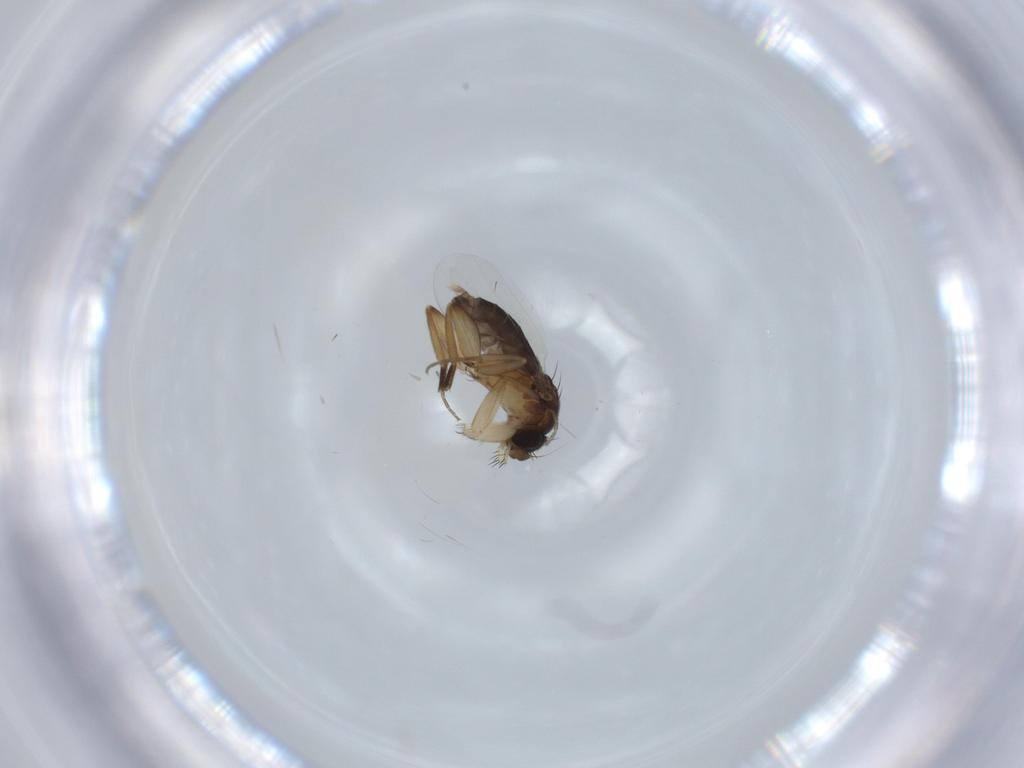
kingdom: Animalia
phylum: Arthropoda
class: Insecta
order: Diptera
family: Phoridae
